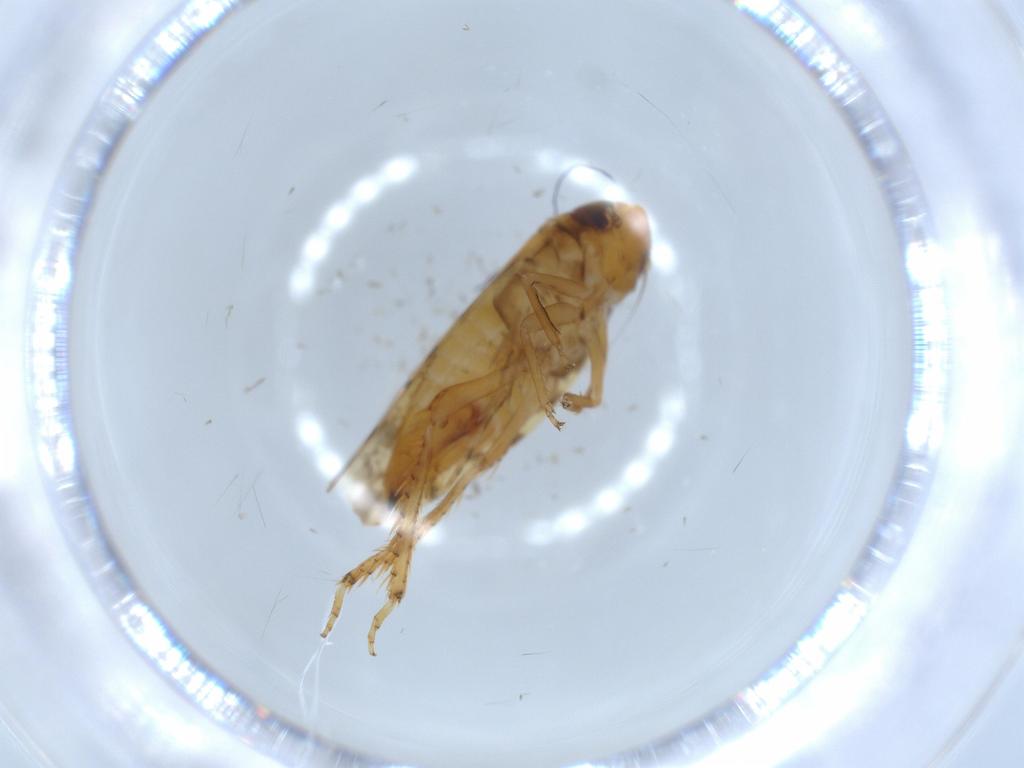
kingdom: Animalia
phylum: Arthropoda
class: Insecta
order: Hemiptera
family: Cicadellidae
